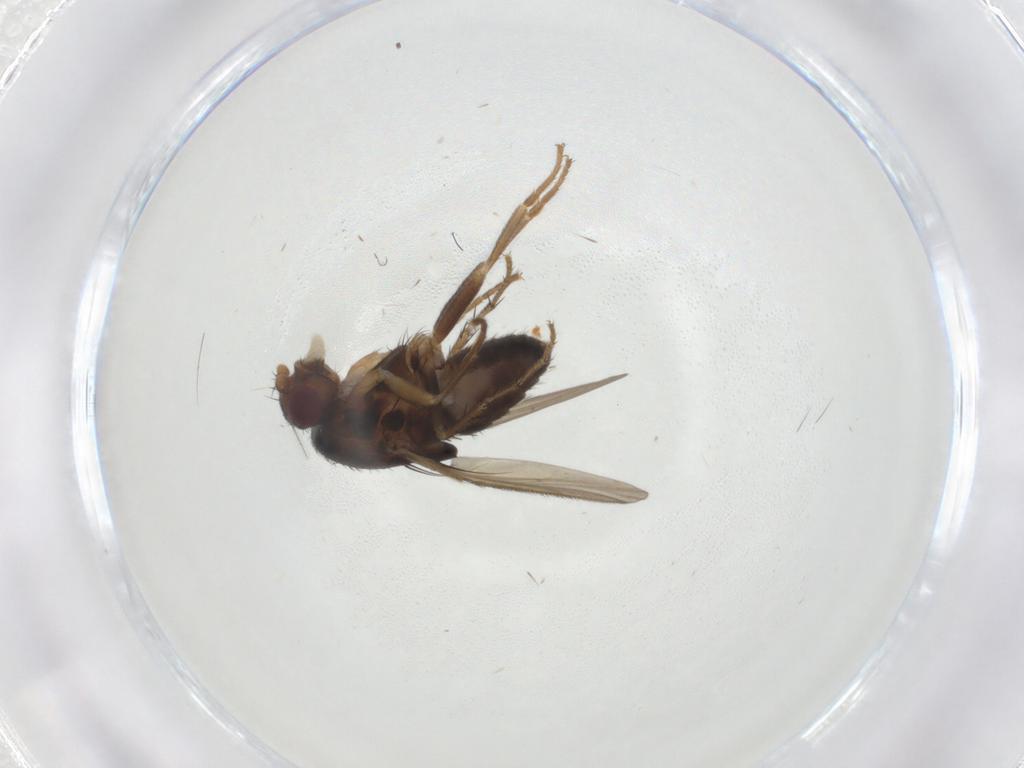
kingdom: Animalia
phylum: Arthropoda
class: Insecta
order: Diptera
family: Sphaeroceridae
